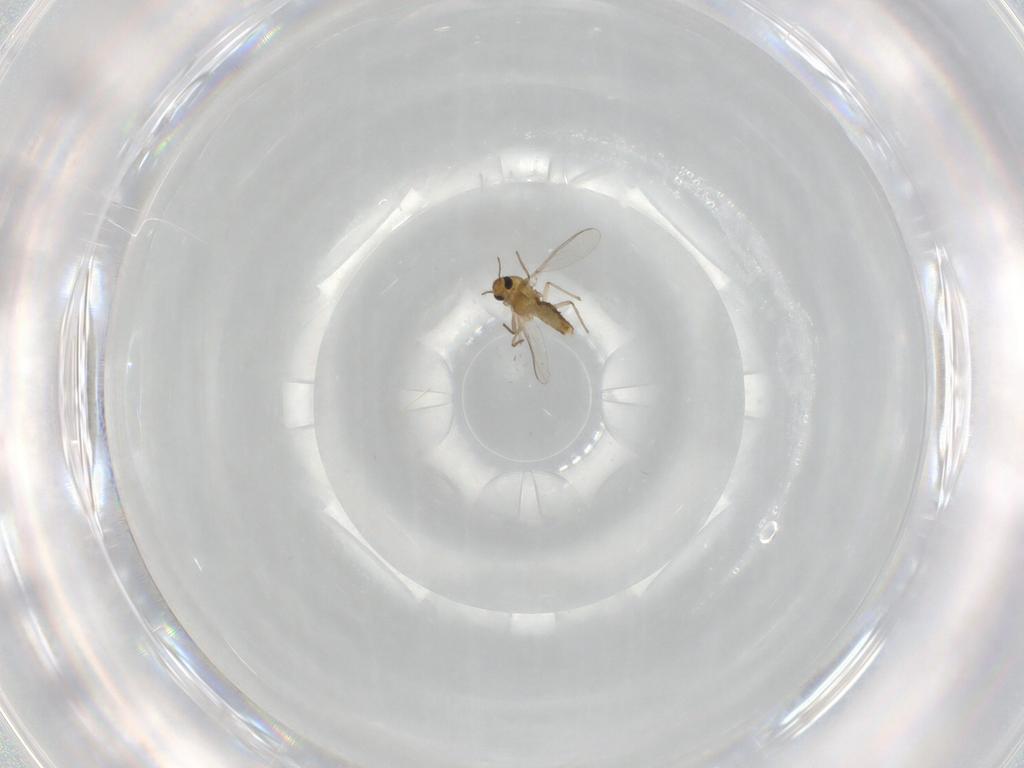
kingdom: Animalia
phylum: Arthropoda
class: Insecta
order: Diptera
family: Chironomidae
